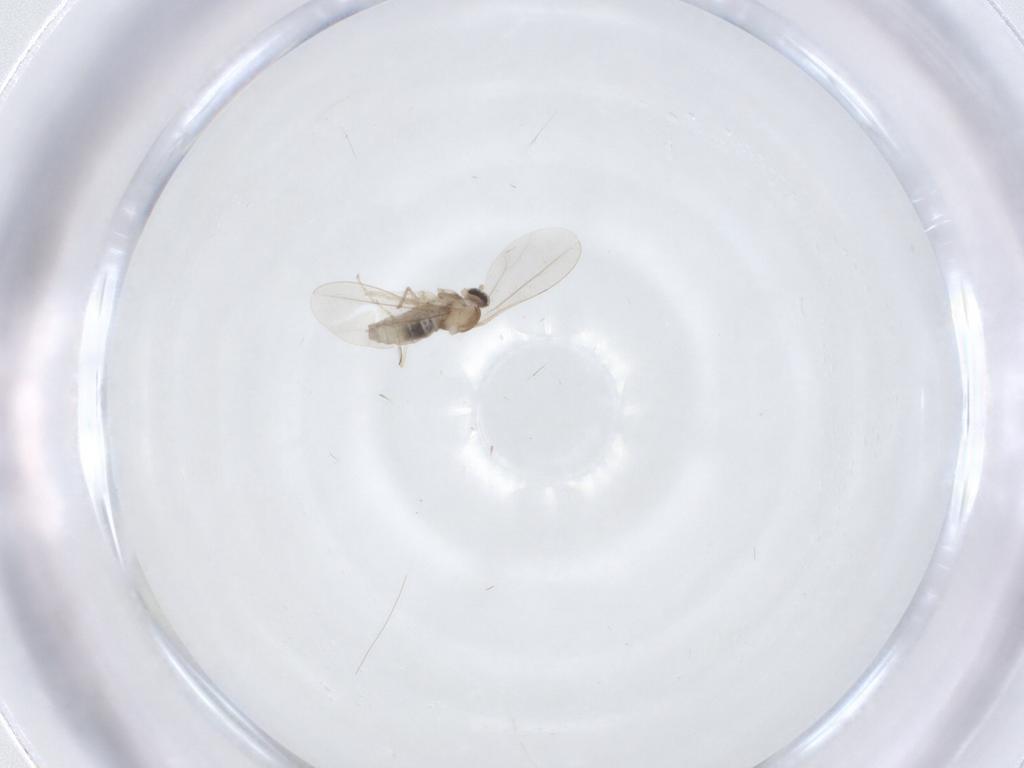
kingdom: Animalia
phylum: Arthropoda
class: Insecta
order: Diptera
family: Cecidomyiidae
